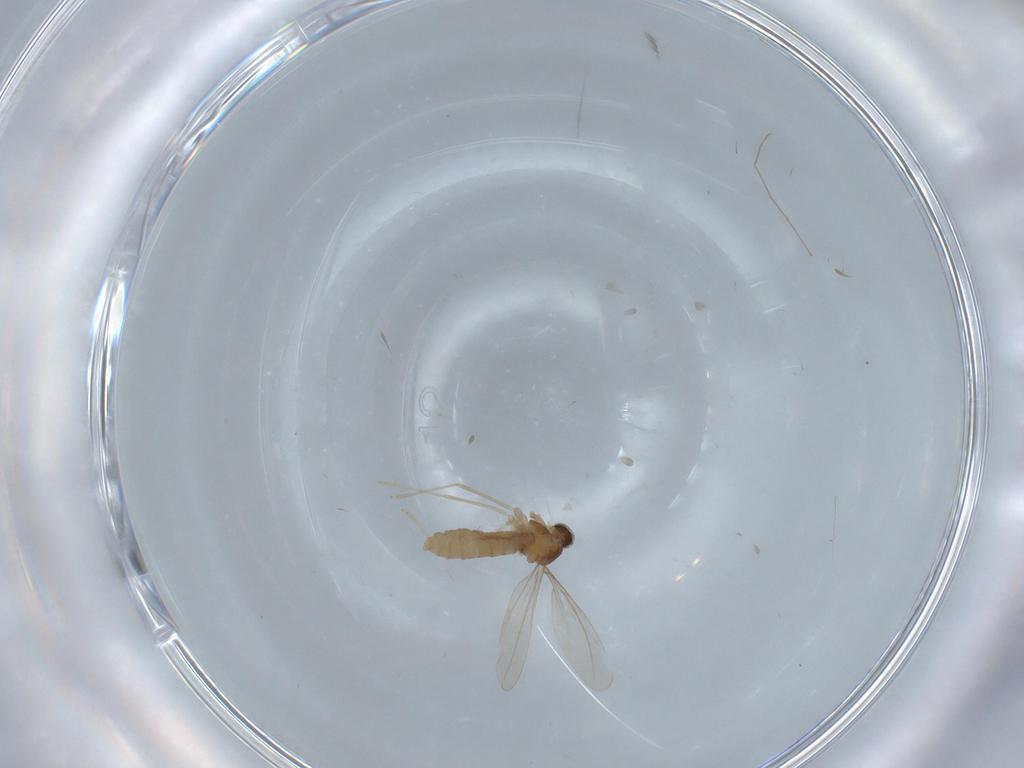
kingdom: Animalia
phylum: Arthropoda
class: Insecta
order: Diptera
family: Chironomidae
